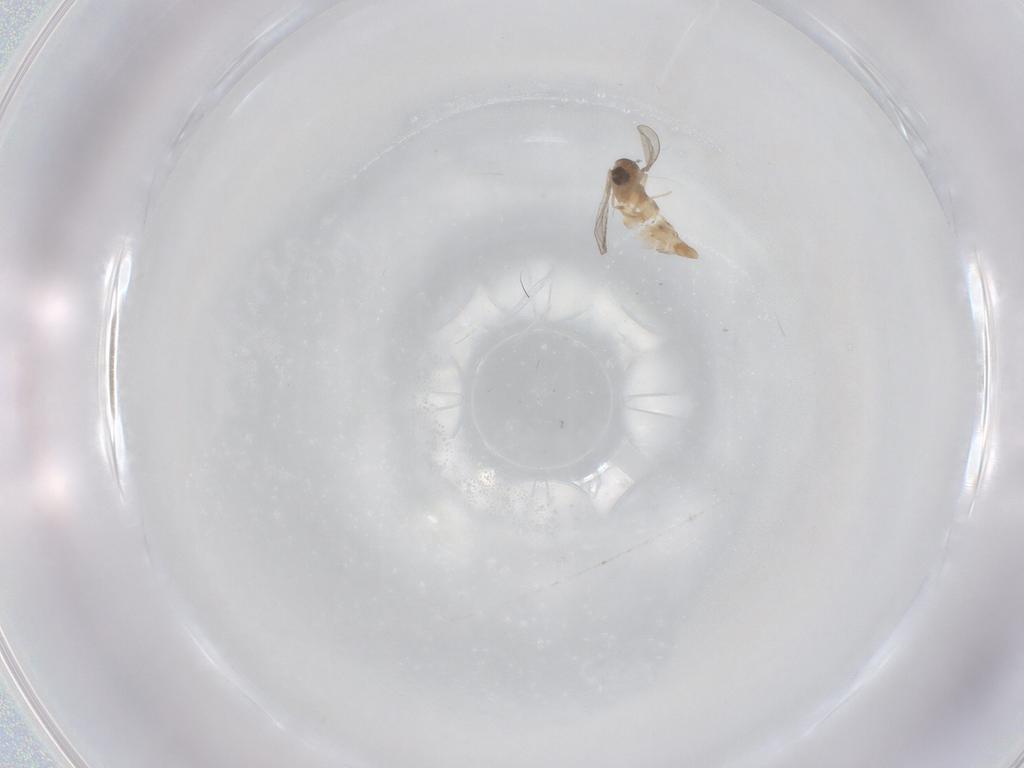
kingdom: Animalia
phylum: Arthropoda
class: Insecta
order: Diptera
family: Cecidomyiidae
